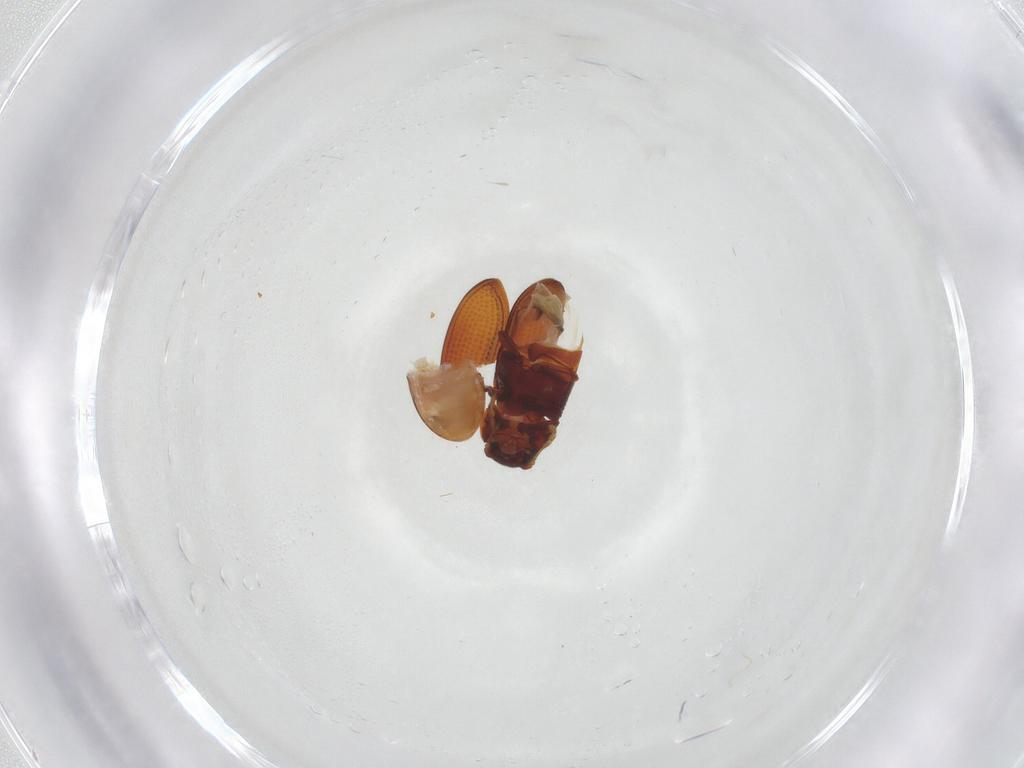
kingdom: Animalia
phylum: Arthropoda
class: Insecta
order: Coleoptera
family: Ptinidae
